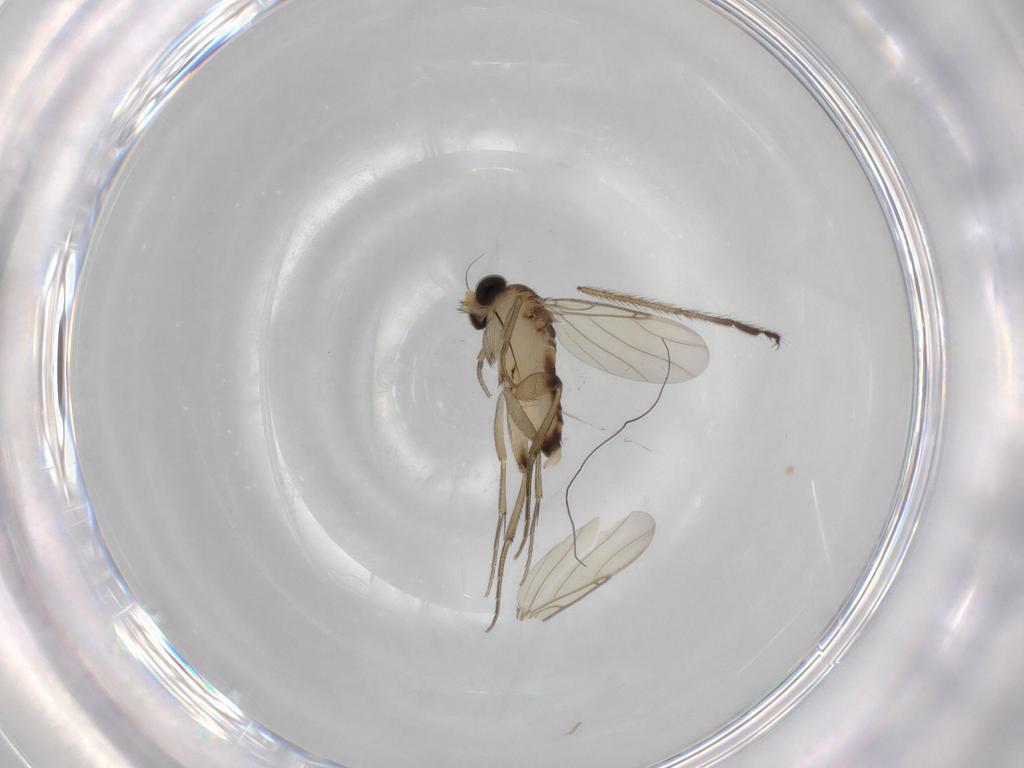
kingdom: Animalia
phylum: Arthropoda
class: Insecta
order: Diptera
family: Phoridae
